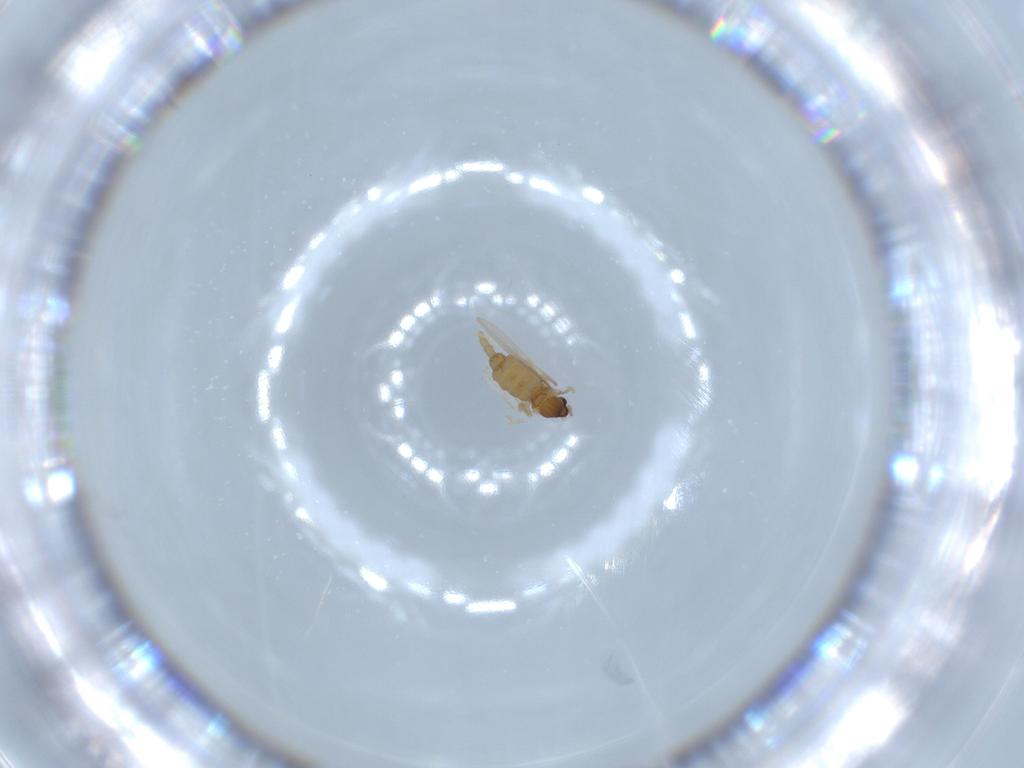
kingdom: Animalia
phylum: Arthropoda
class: Insecta
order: Diptera
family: Cecidomyiidae
